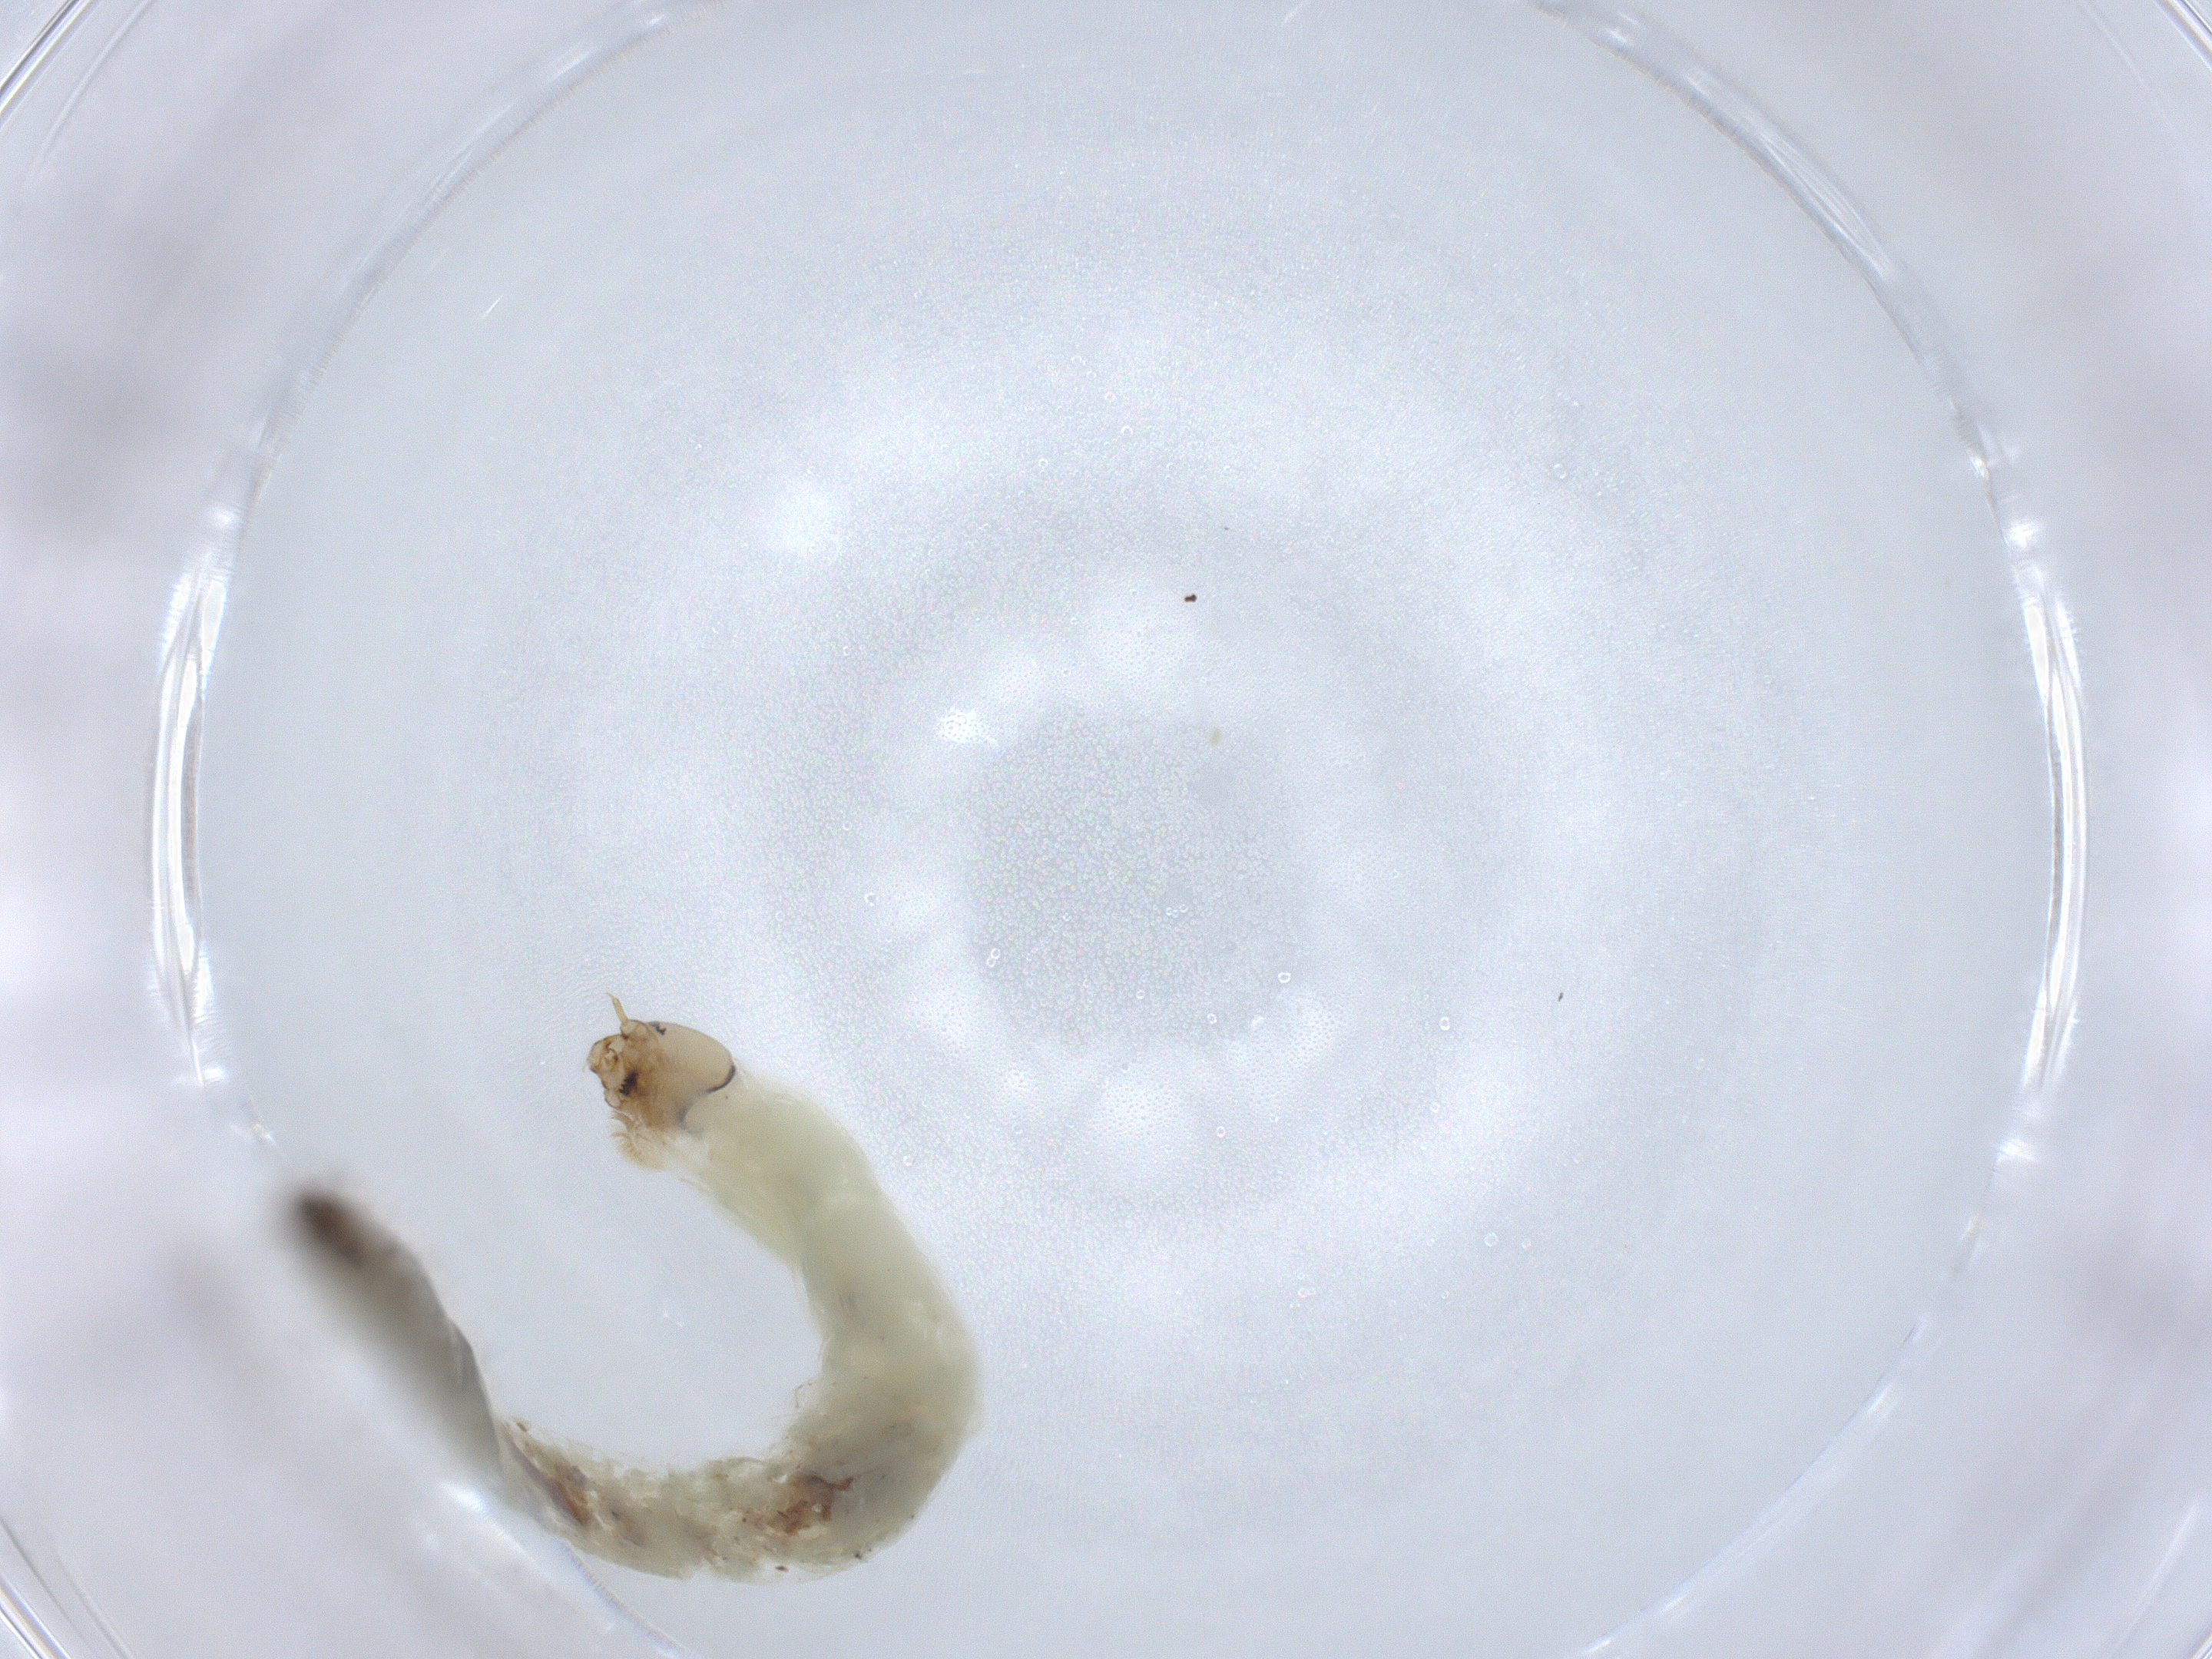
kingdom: Animalia
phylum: Arthropoda
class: Insecta
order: Diptera
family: Chironomidae
